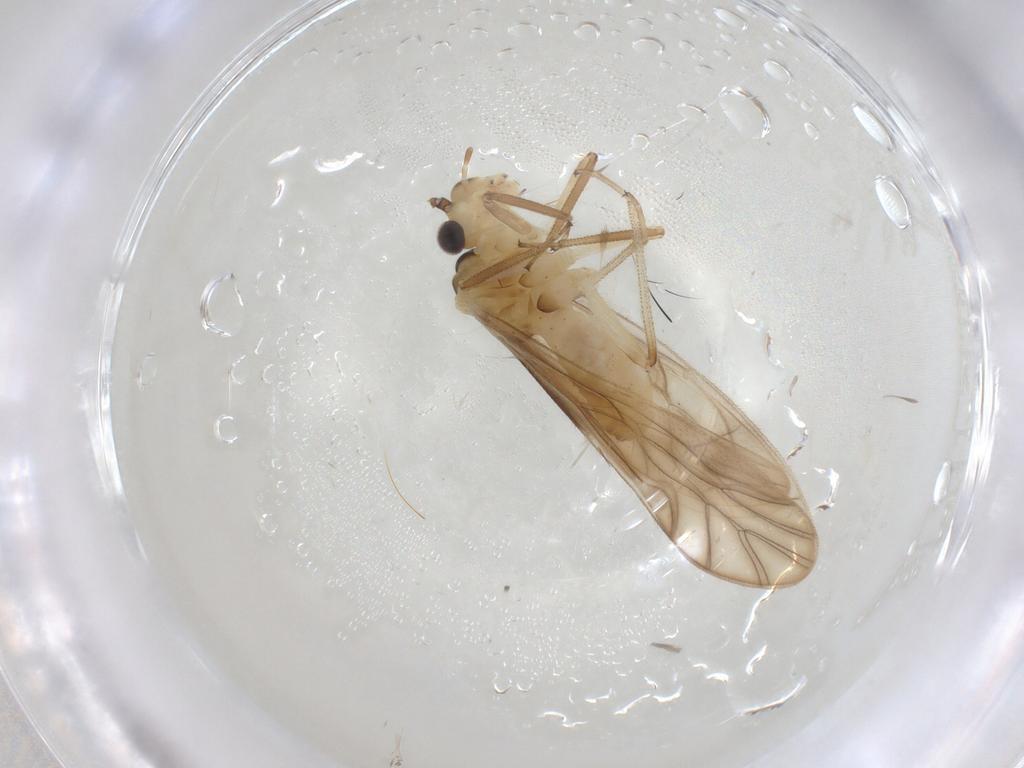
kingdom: Animalia
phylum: Arthropoda
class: Insecta
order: Psocodea
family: Caeciliusidae
